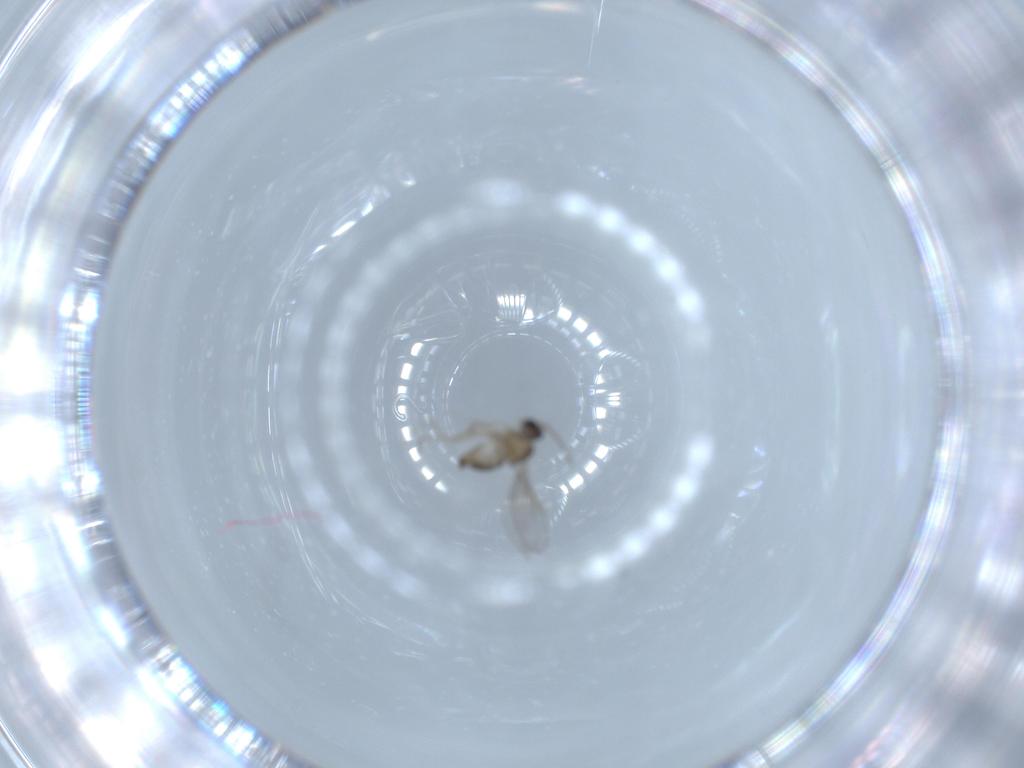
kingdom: Animalia
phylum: Arthropoda
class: Insecta
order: Diptera
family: Cecidomyiidae
